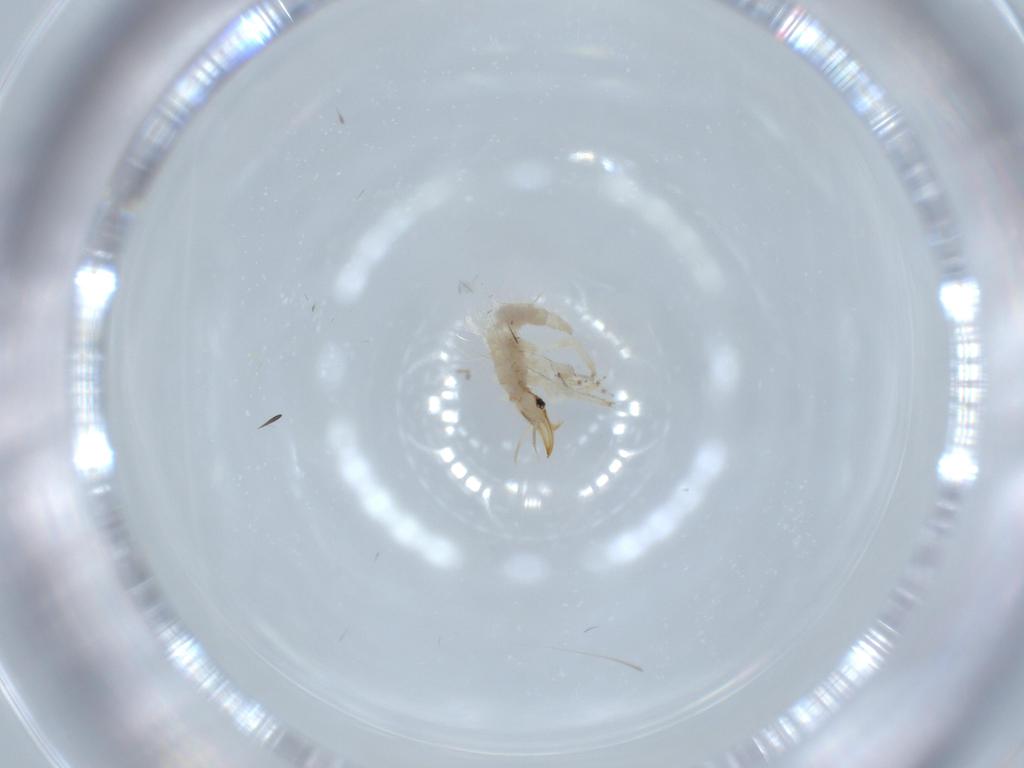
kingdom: Animalia
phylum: Arthropoda
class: Insecta
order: Neuroptera
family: Chrysopidae
